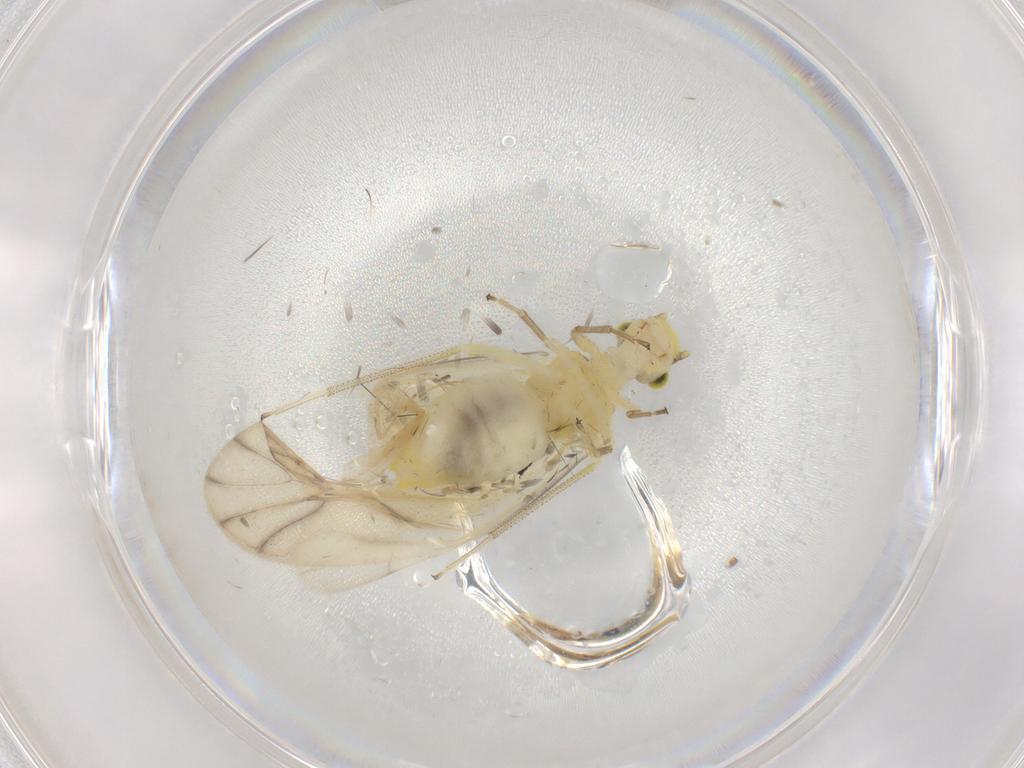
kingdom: Animalia
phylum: Arthropoda
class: Insecta
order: Psocodea
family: Caeciliusidae
